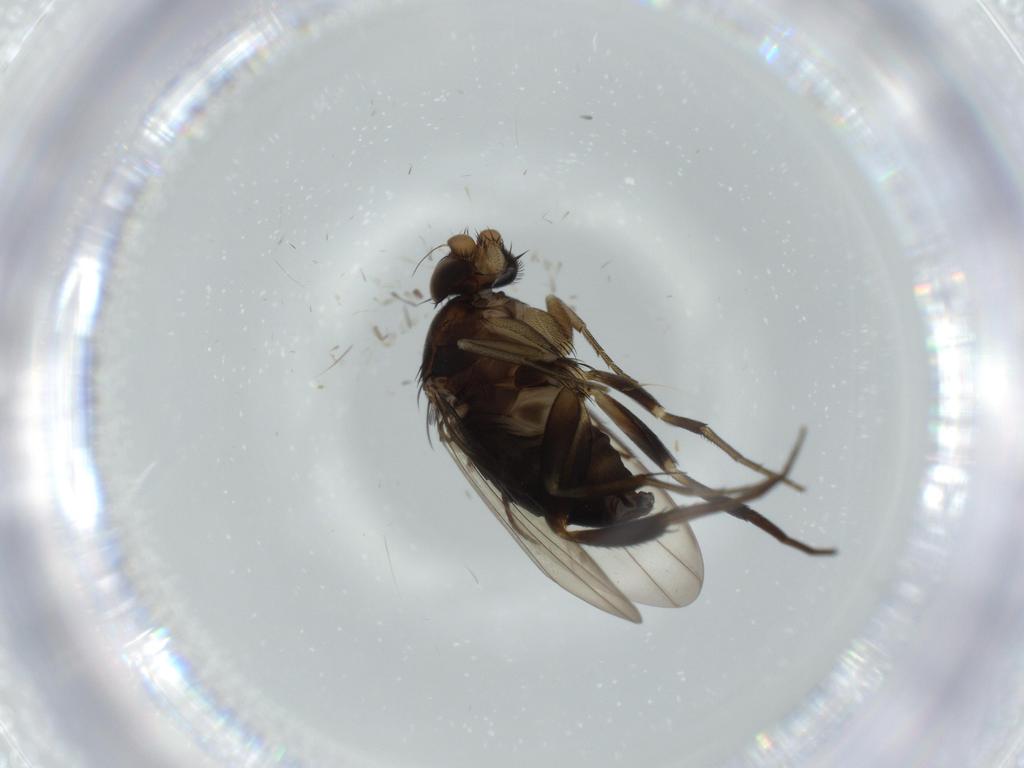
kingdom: Animalia
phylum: Arthropoda
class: Insecta
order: Diptera
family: Phoridae
